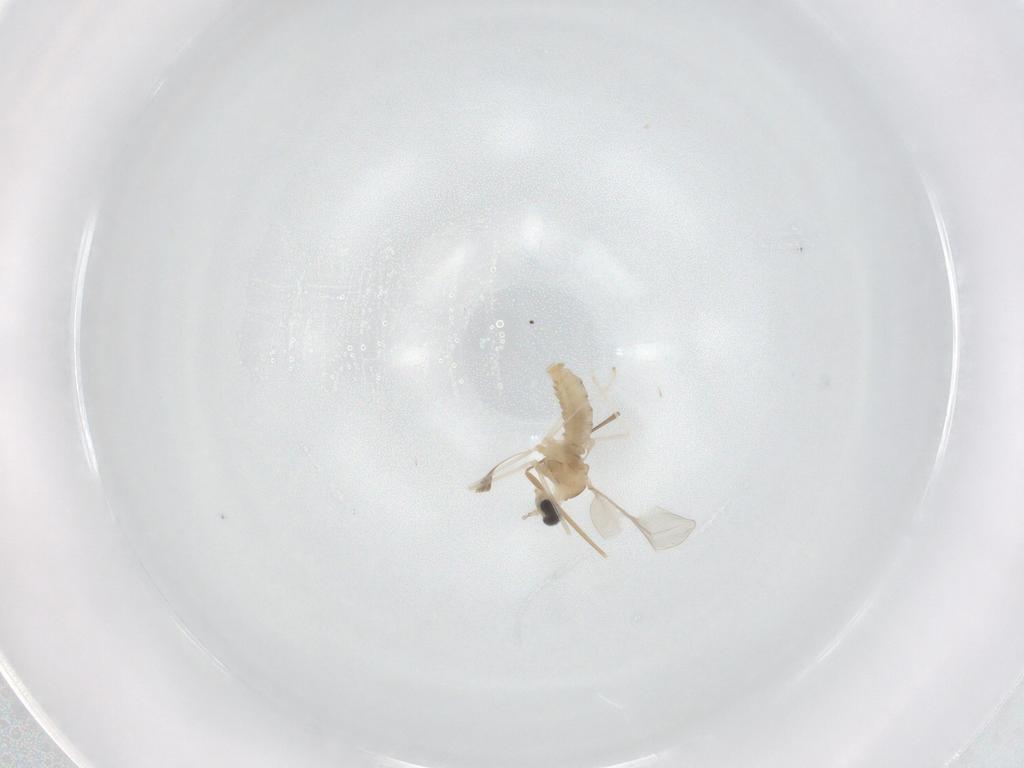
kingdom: Animalia
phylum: Arthropoda
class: Insecta
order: Diptera
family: Cecidomyiidae
